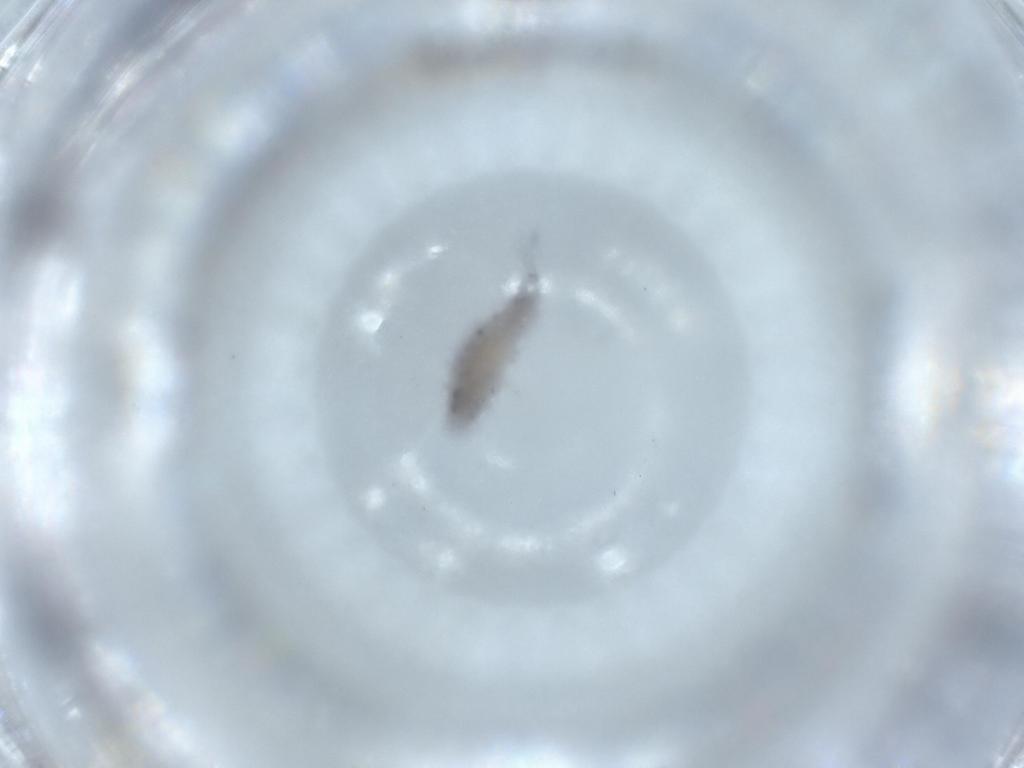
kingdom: Animalia
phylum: Arthropoda
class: Collembola
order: Entomobryomorpha
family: Entomobryidae
